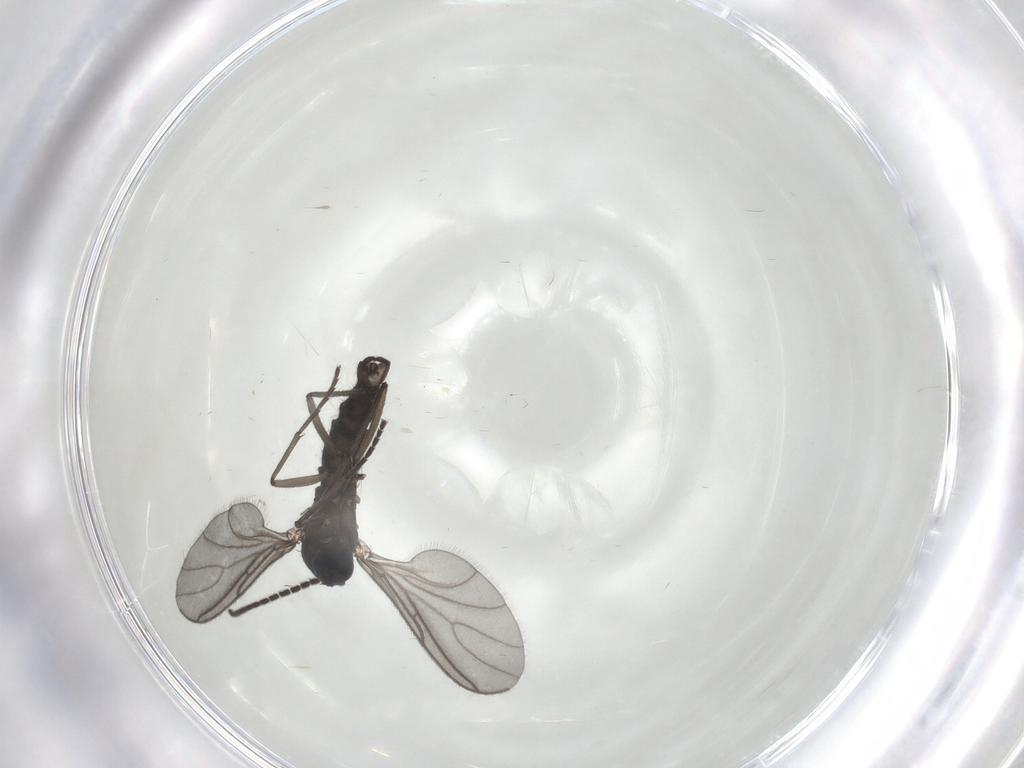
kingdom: Animalia
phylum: Arthropoda
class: Insecta
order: Diptera
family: Sciaridae
